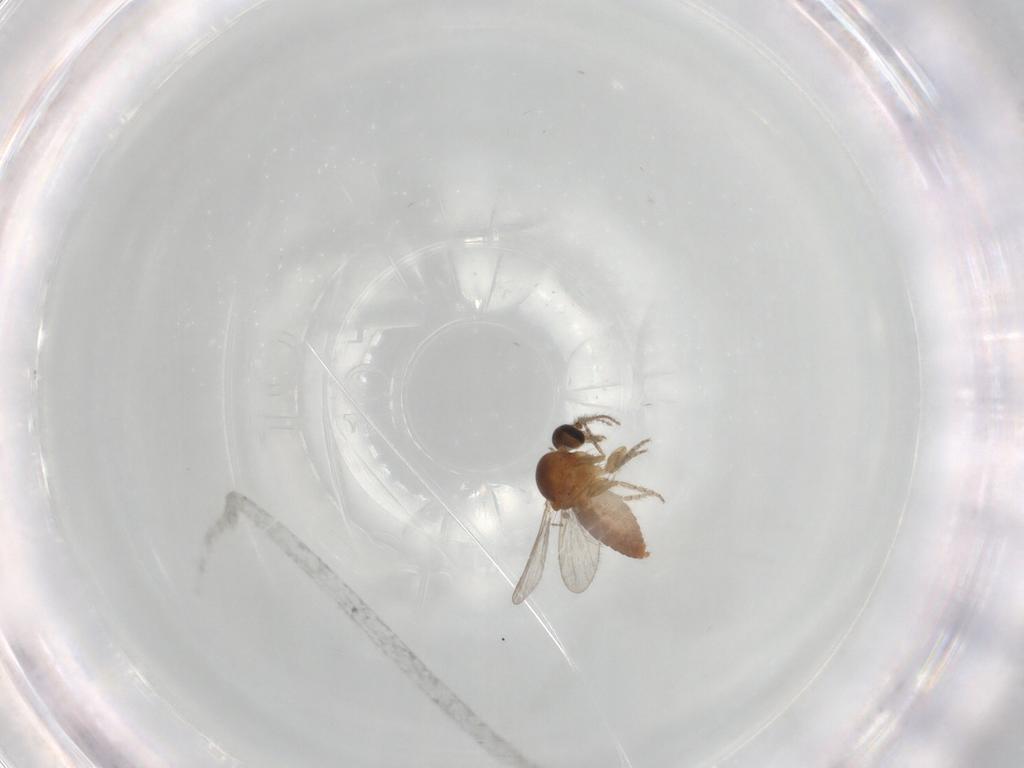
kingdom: Animalia
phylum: Arthropoda
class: Insecta
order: Diptera
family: Ceratopogonidae
